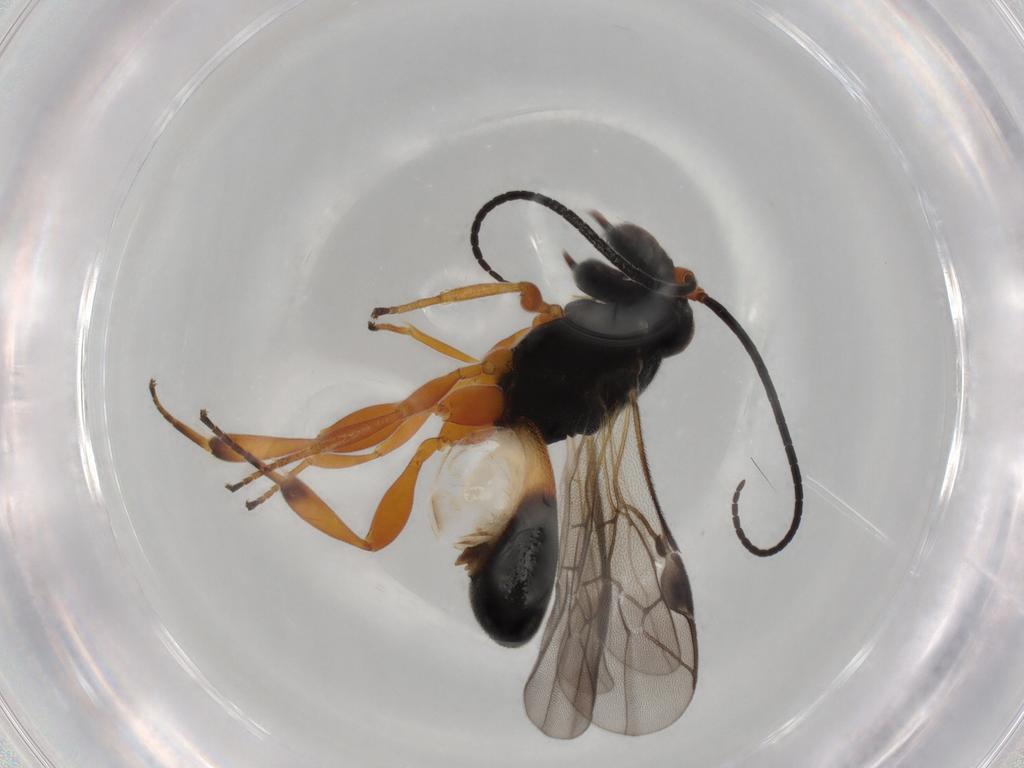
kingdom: Animalia
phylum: Arthropoda
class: Insecta
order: Hymenoptera
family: Braconidae
